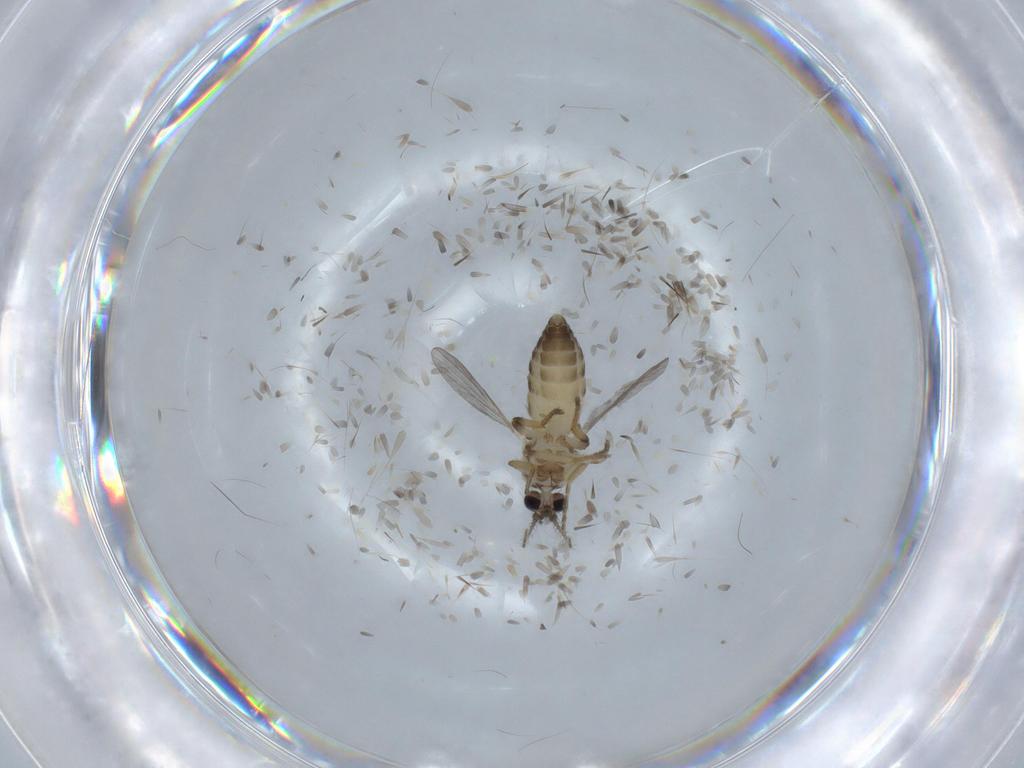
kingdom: Animalia
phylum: Arthropoda
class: Insecta
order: Diptera
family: Ceratopogonidae
